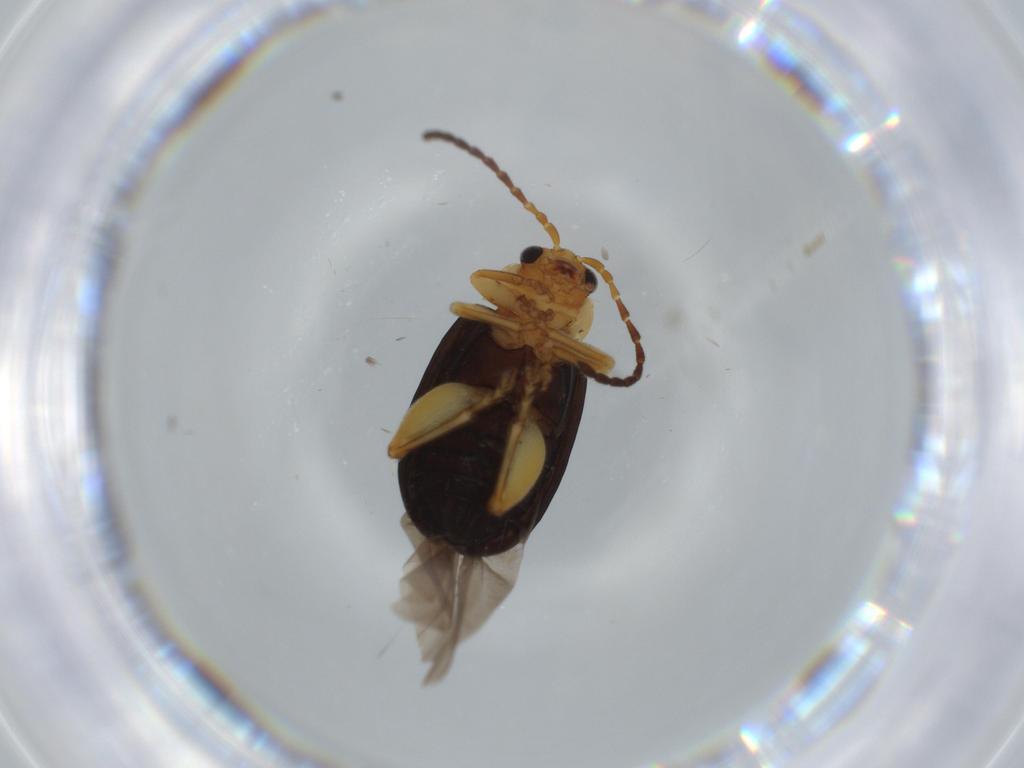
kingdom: Animalia
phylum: Arthropoda
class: Insecta
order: Coleoptera
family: Chrysomelidae
